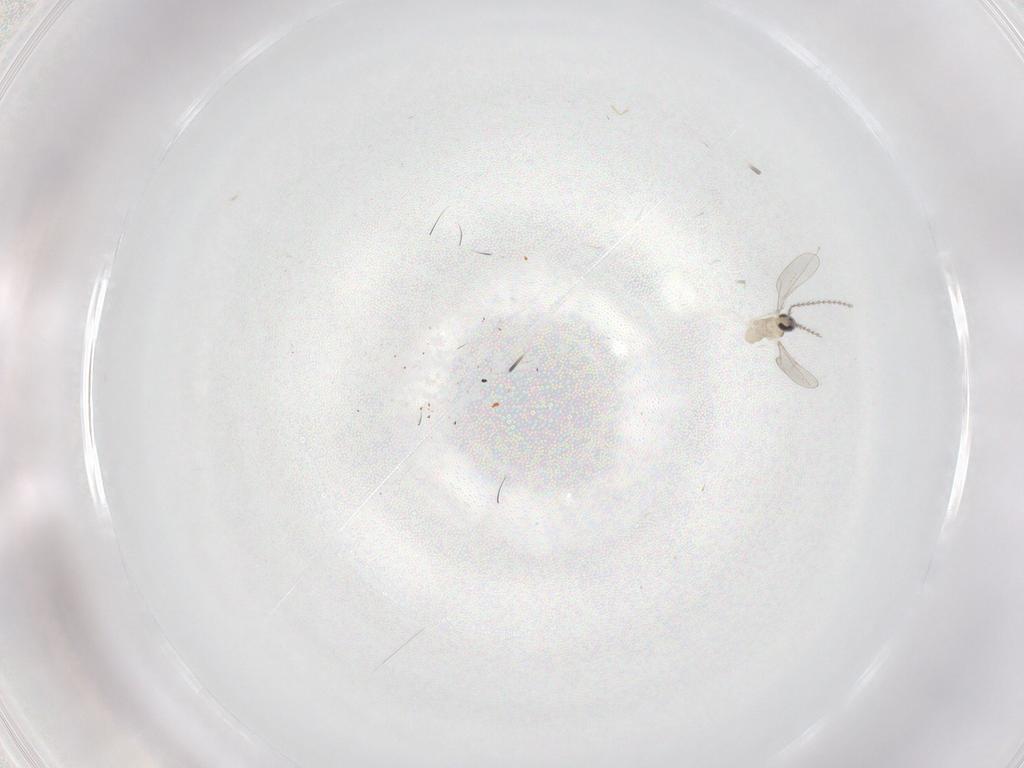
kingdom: Animalia
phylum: Arthropoda
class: Insecta
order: Diptera
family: Cecidomyiidae
